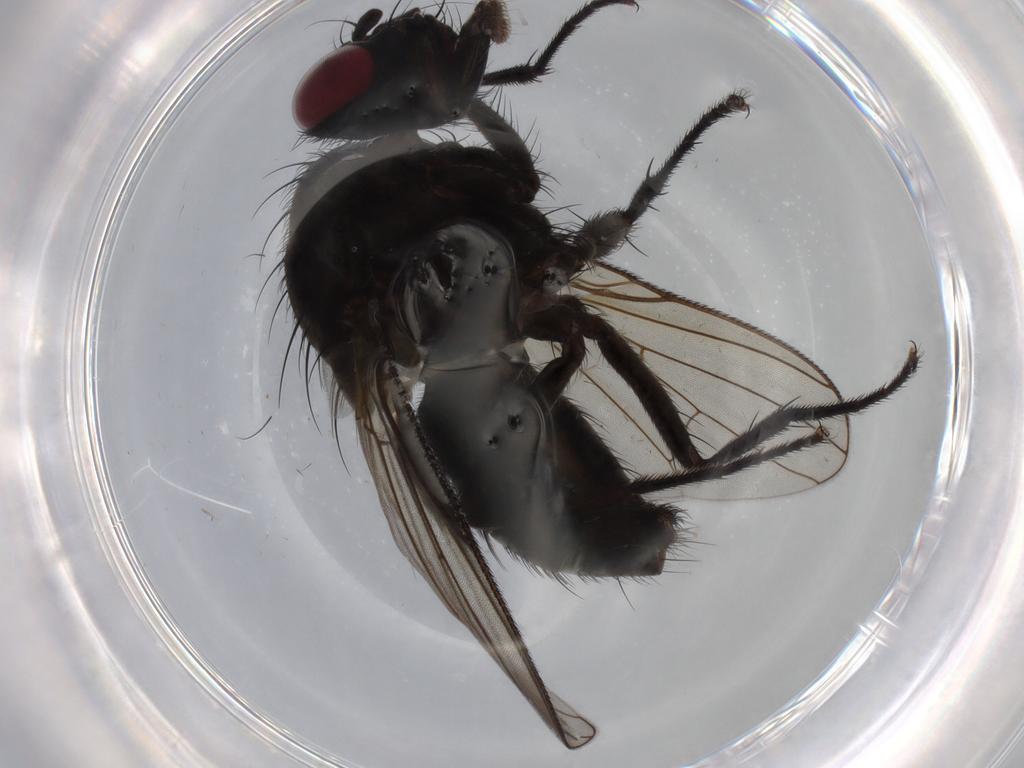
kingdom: Animalia
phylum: Arthropoda
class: Insecta
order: Diptera
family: Muscidae
